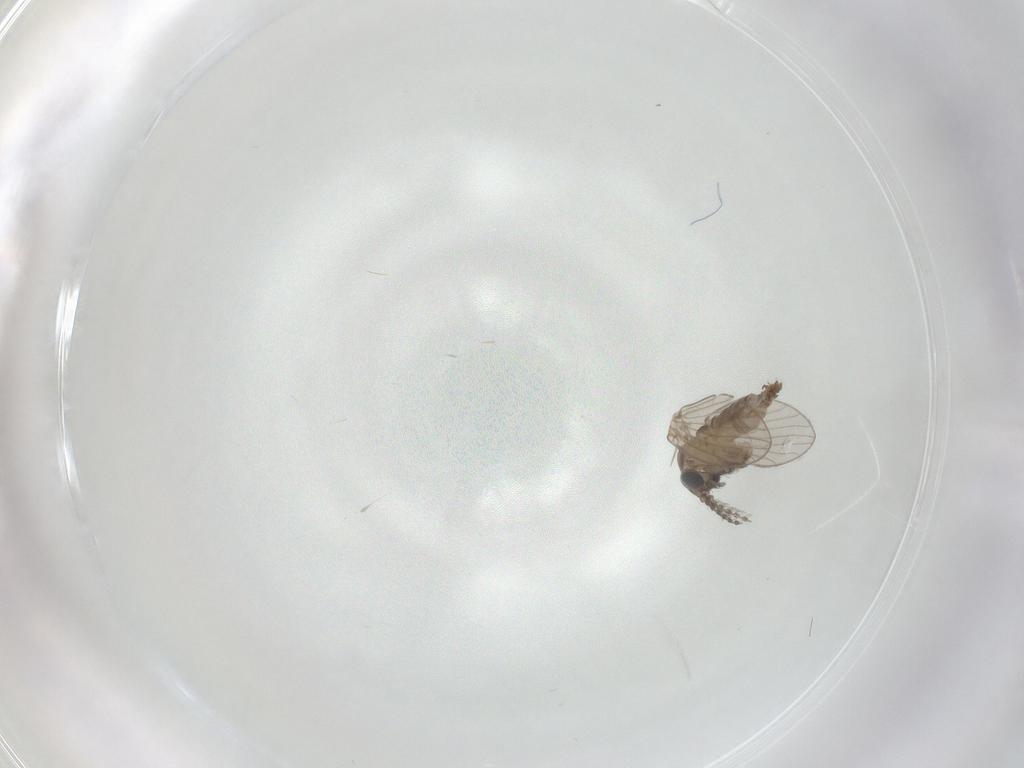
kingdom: Animalia
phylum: Arthropoda
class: Insecta
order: Diptera
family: Psychodidae
